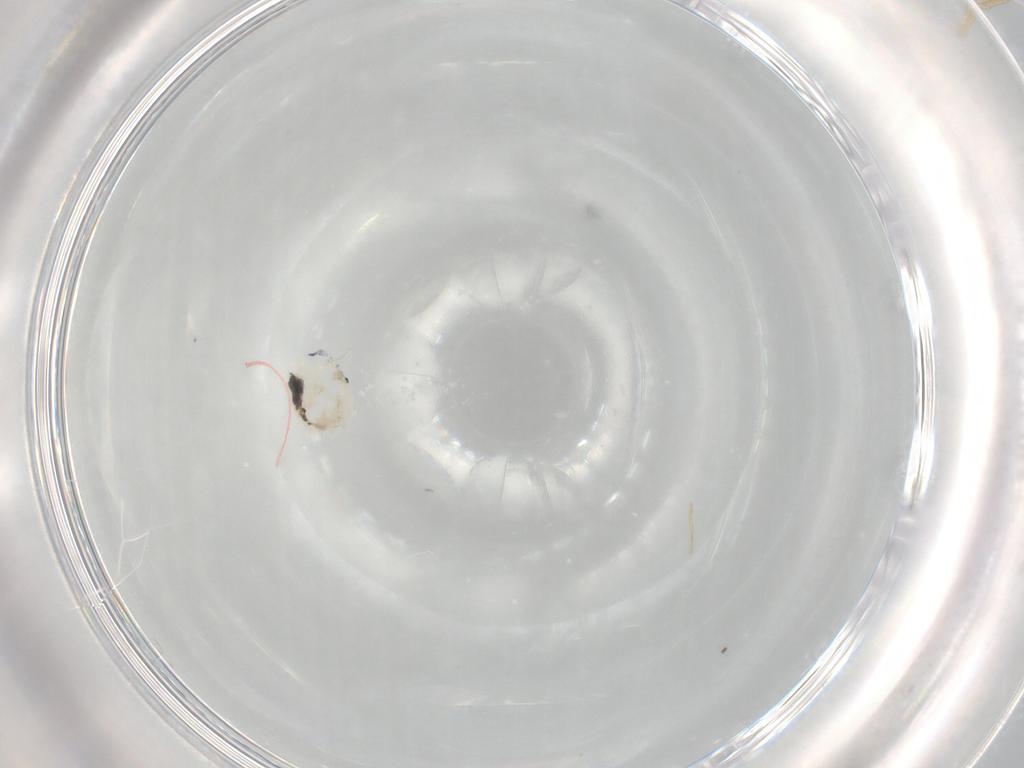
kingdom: Animalia
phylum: Arthropoda
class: Collembola
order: Entomobryomorpha
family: Entomobryidae
